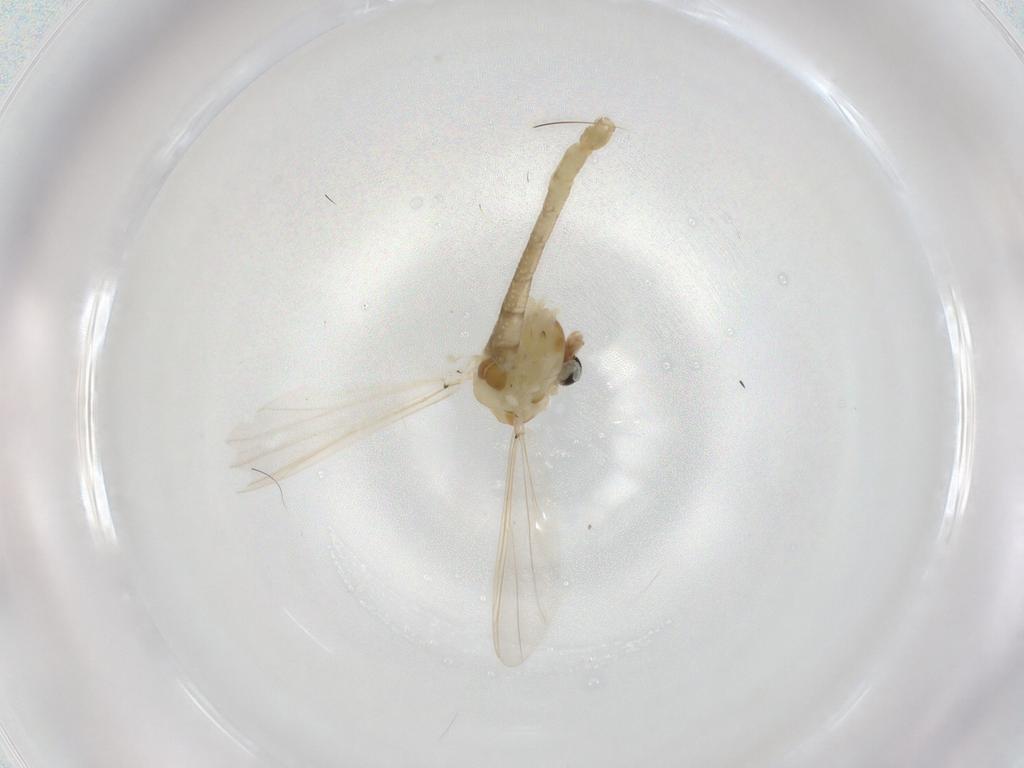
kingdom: Animalia
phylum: Arthropoda
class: Insecta
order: Diptera
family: Chironomidae
